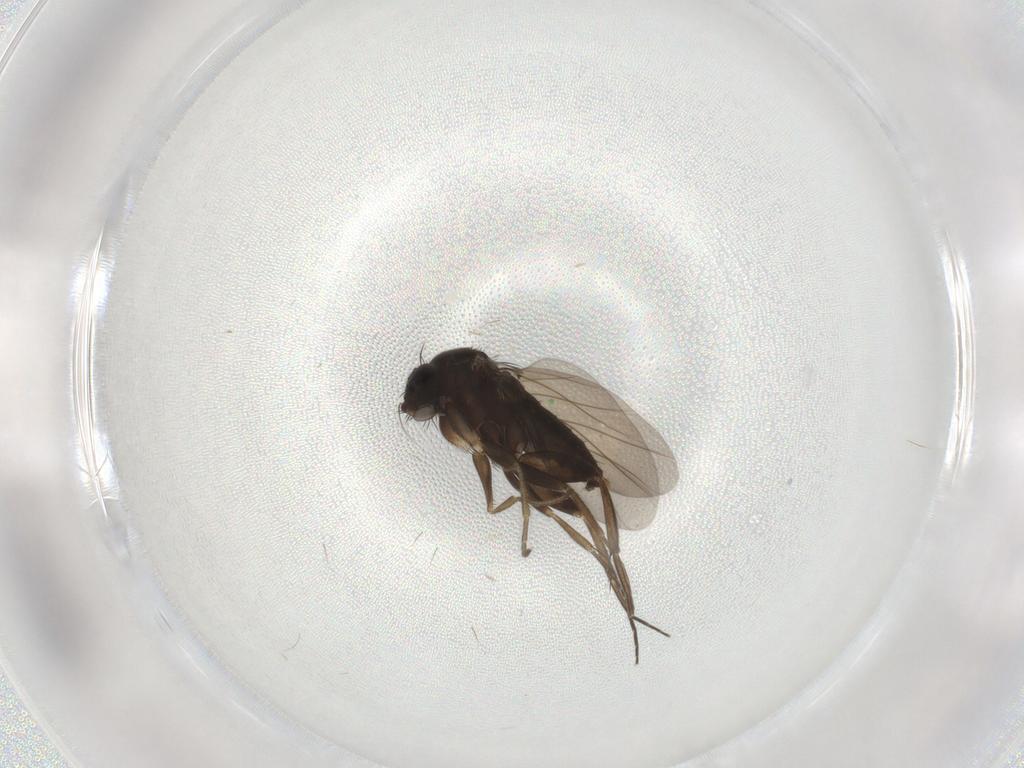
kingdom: Animalia
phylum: Arthropoda
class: Insecta
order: Diptera
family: Phoridae
